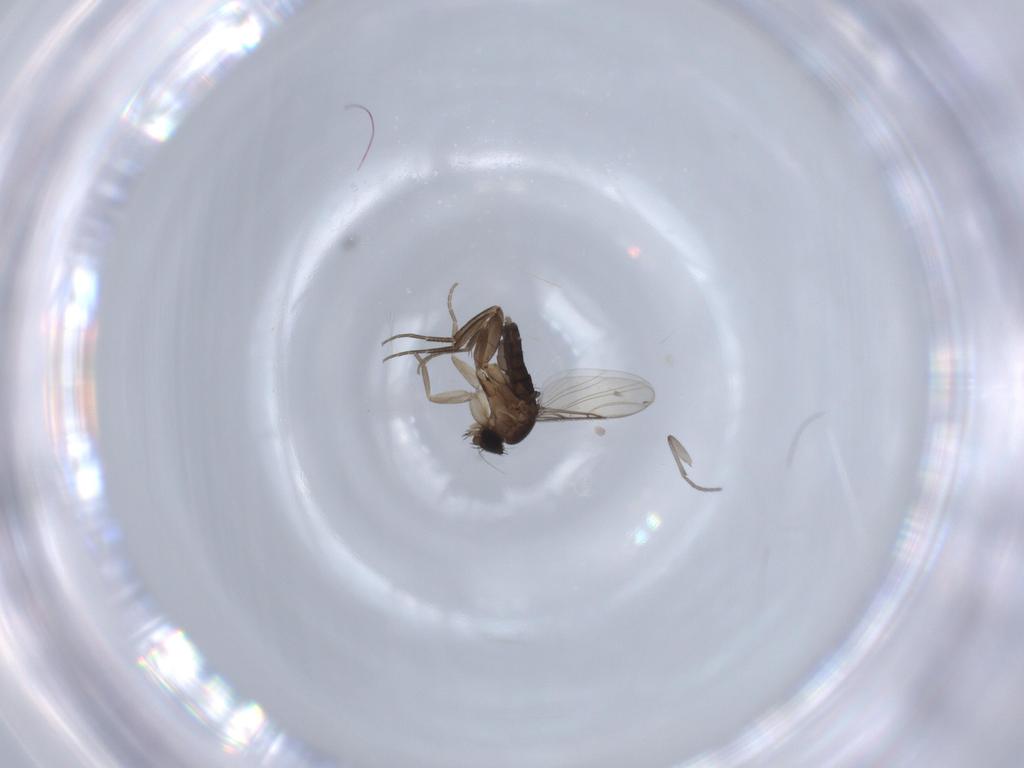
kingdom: Animalia
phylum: Arthropoda
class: Insecta
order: Diptera
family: Phoridae
